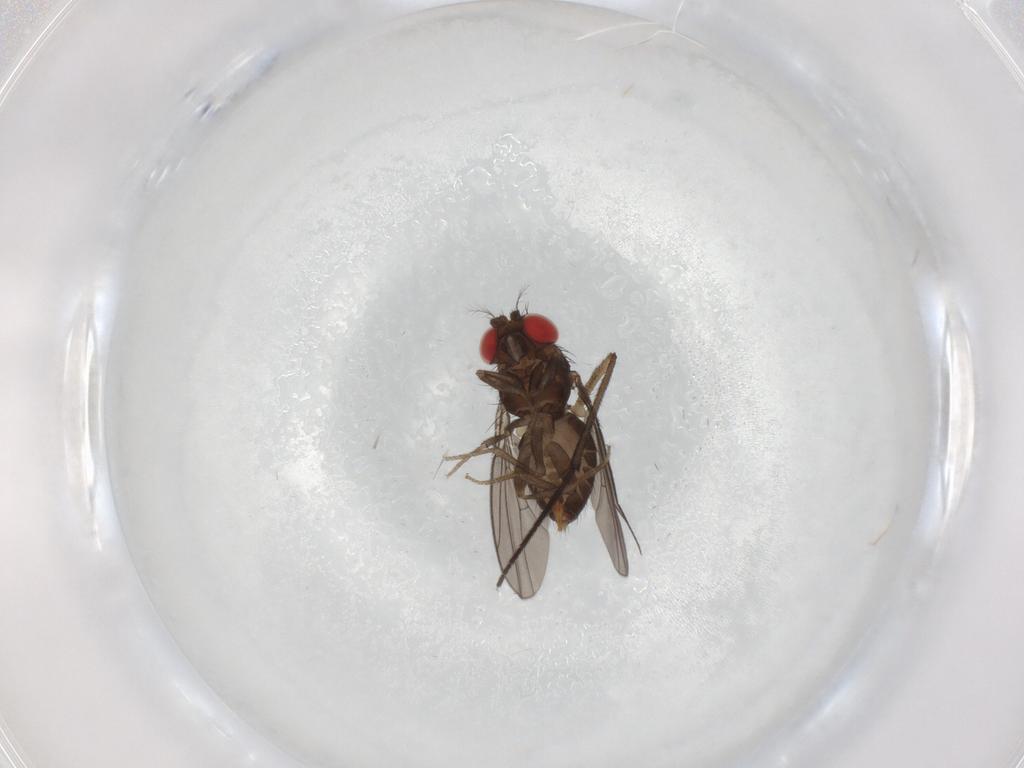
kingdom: Animalia
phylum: Arthropoda
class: Insecta
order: Diptera
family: Drosophilidae
